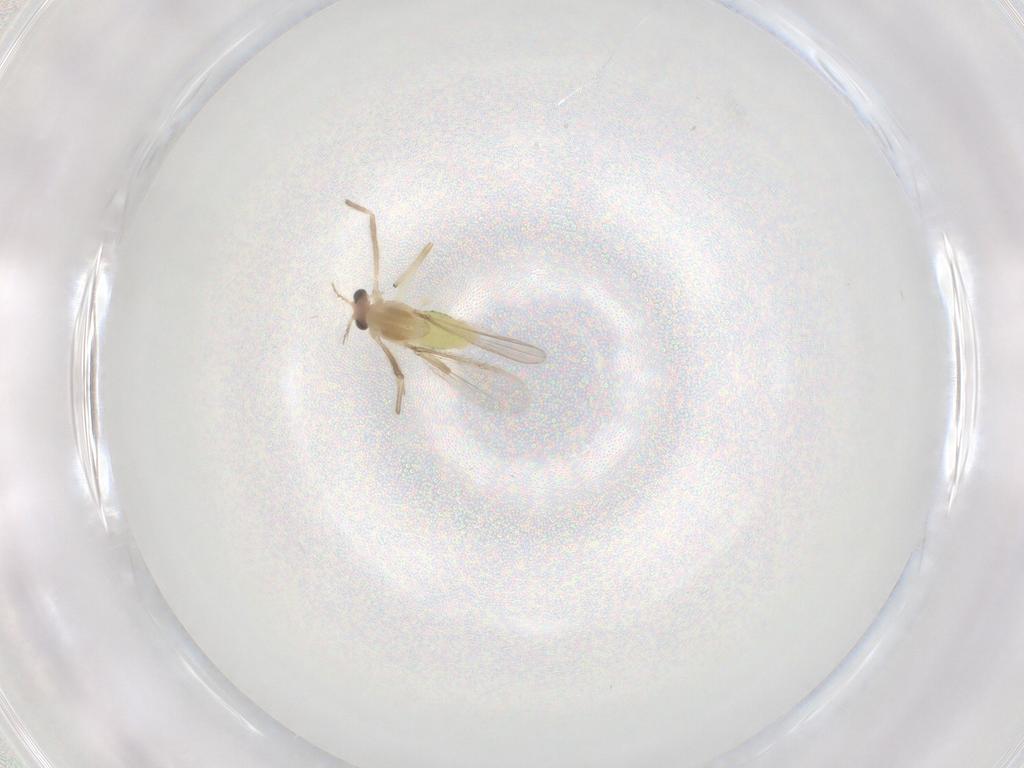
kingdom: Animalia
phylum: Arthropoda
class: Insecta
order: Diptera
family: Chironomidae
